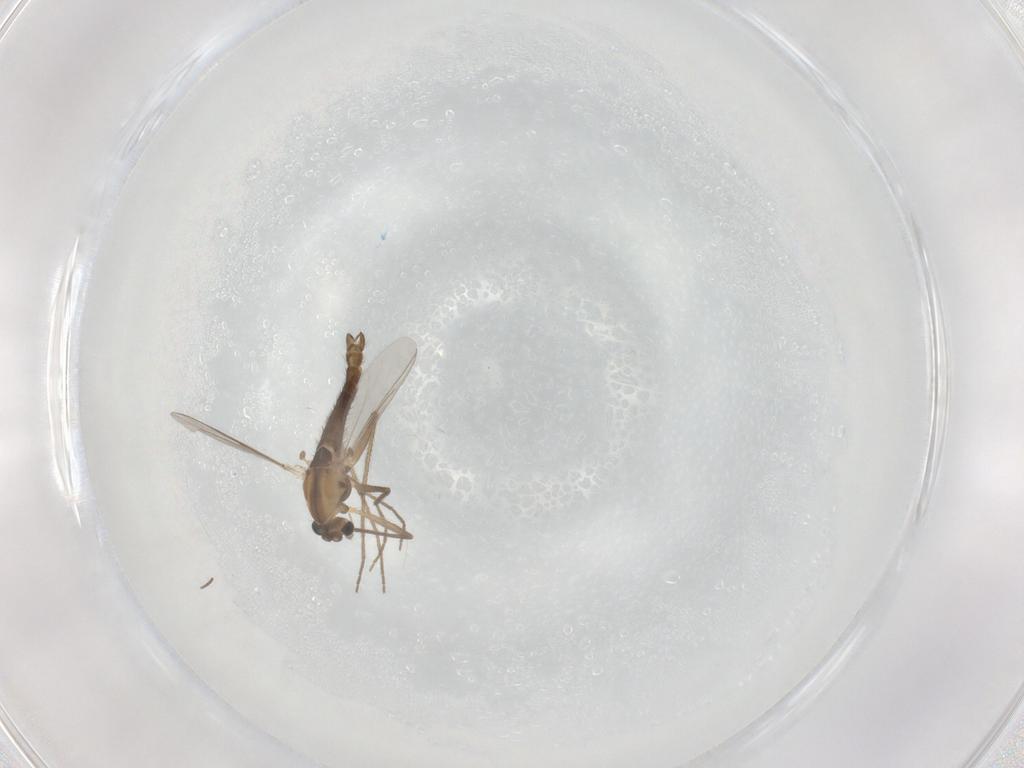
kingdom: Animalia
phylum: Arthropoda
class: Insecta
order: Diptera
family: Chironomidae
